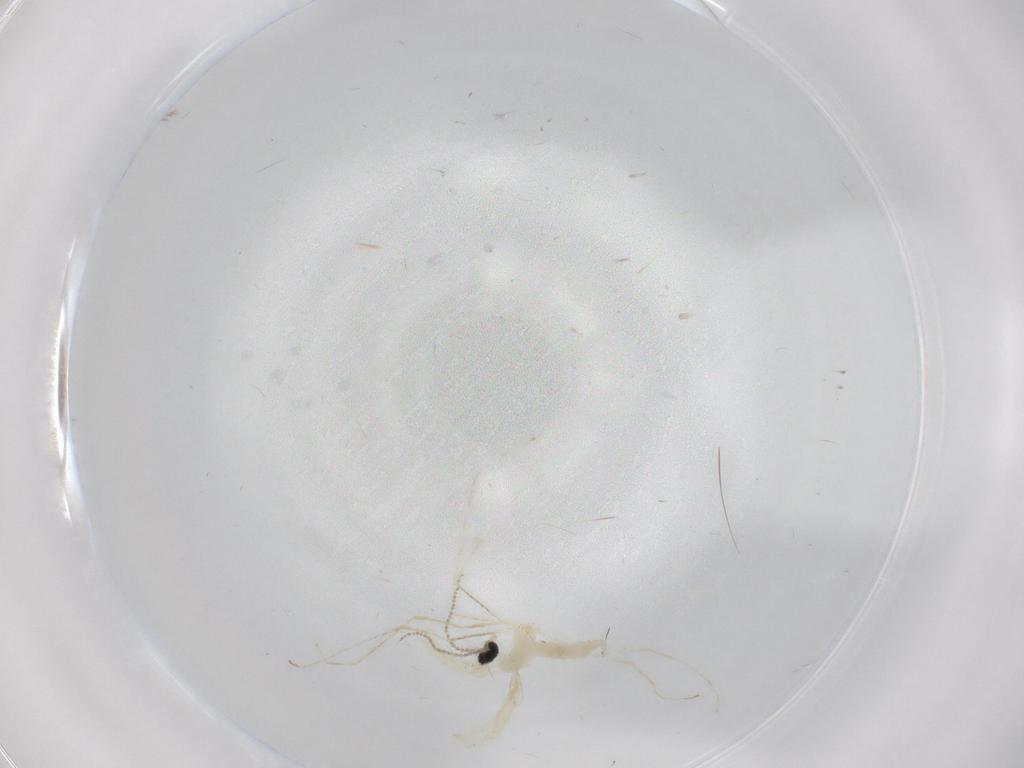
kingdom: Animalia
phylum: Arthropoda
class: Insecta
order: Diptera
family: Cecidomyiidae
